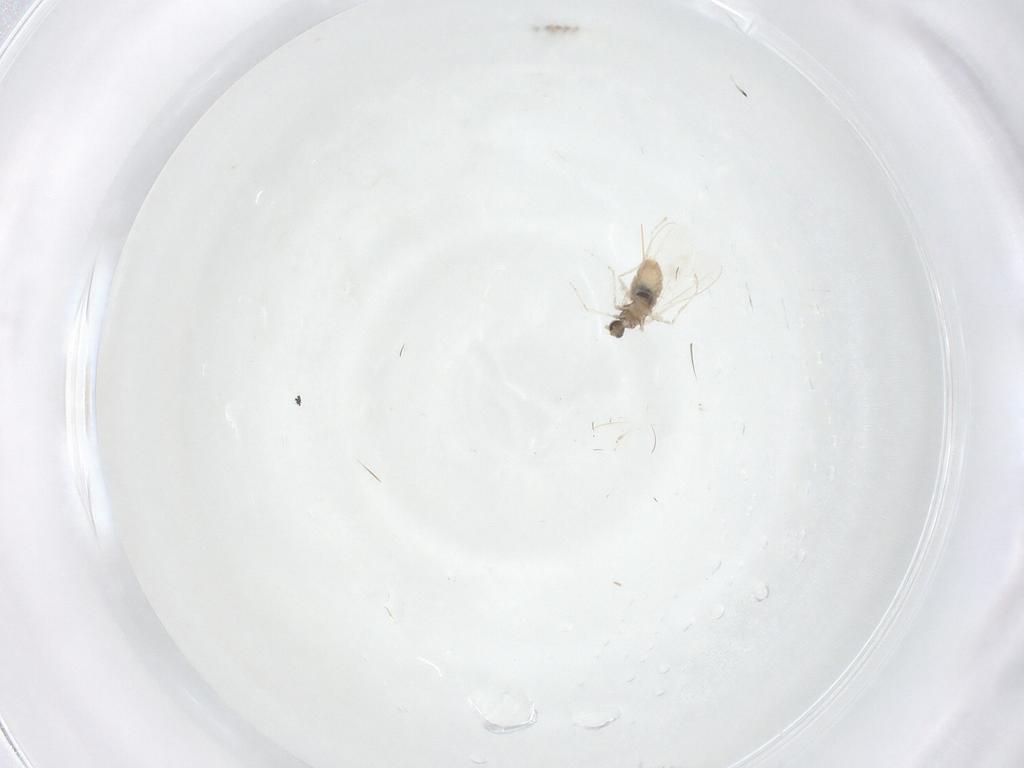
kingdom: Animalia
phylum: Arthropoda
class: Insecta
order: Diptera
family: Cecidomyiidae
